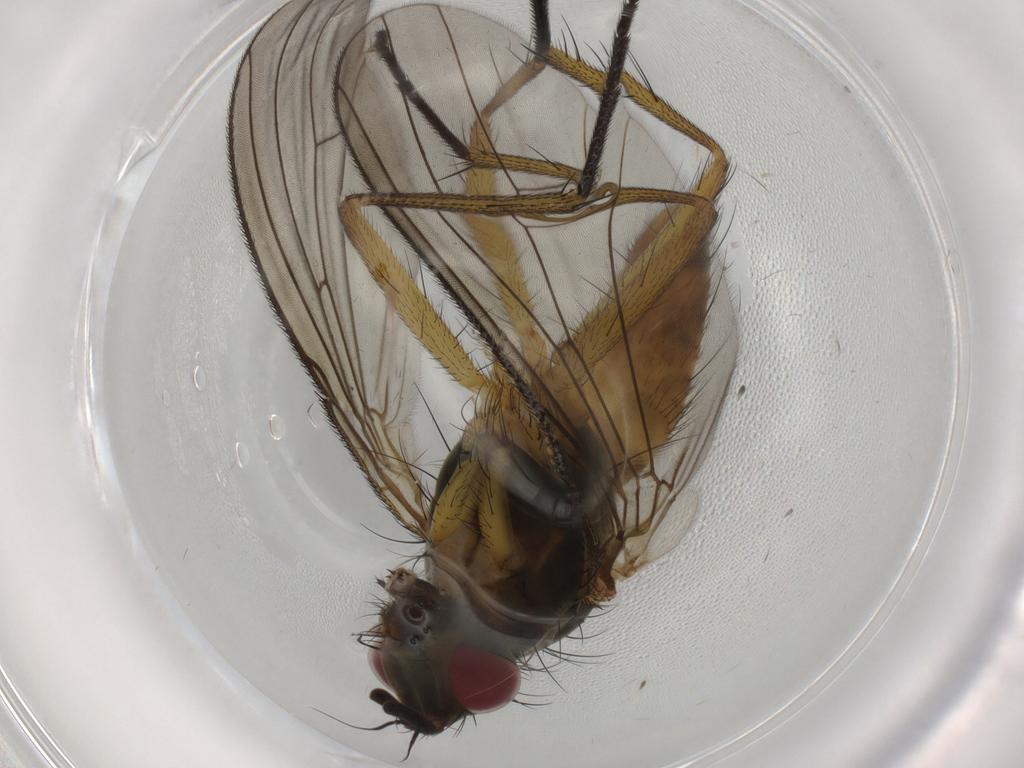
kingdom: Animalia
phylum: Arthropoda
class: Insecta
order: Diptera
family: Muscidae
